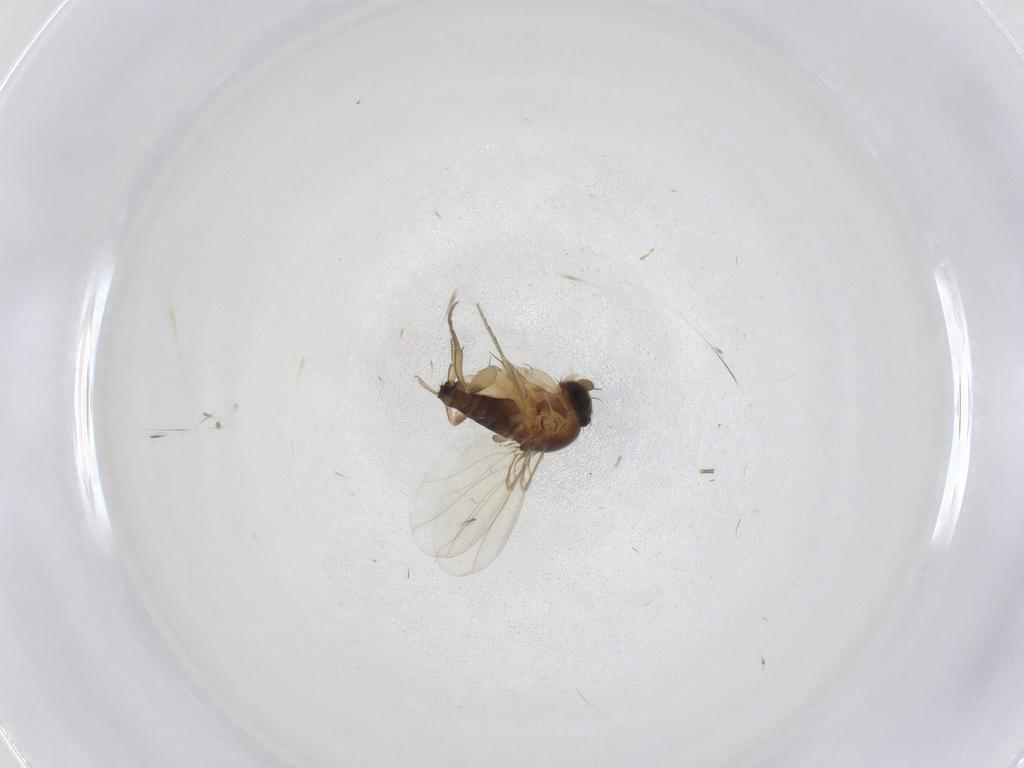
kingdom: Animalia
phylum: Arthropoda
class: Insecta
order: Diptera
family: Phoridae
